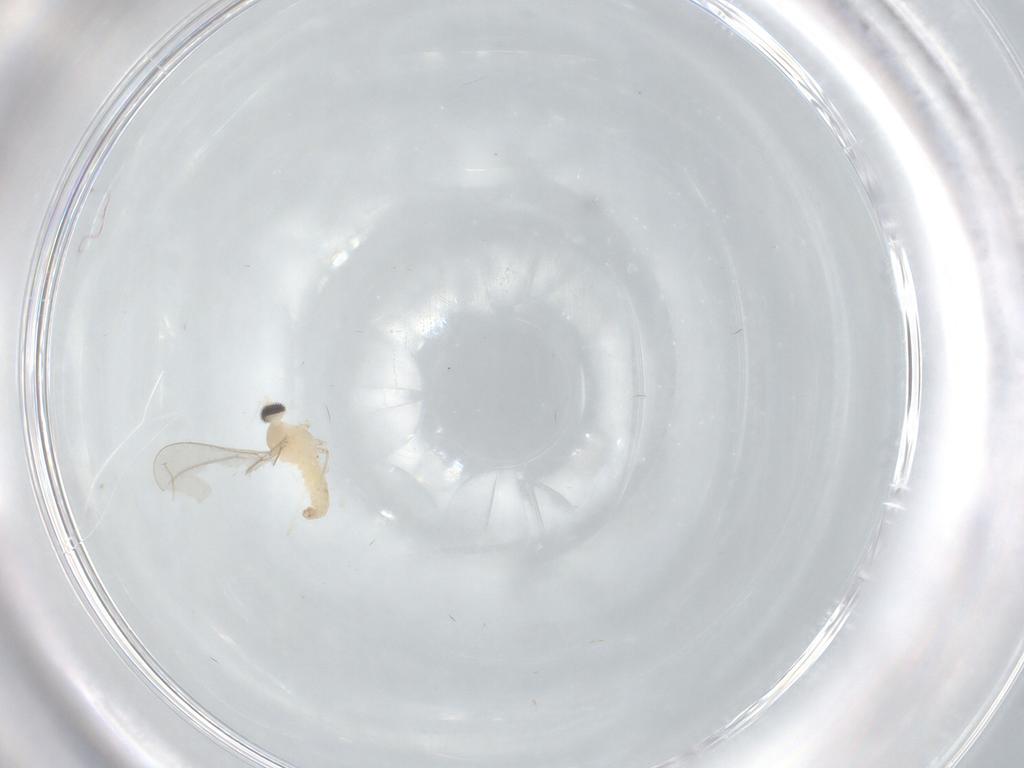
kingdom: Animalia
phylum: Arthropoda
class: Insecta
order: Diptera
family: Cecidomyiidae
